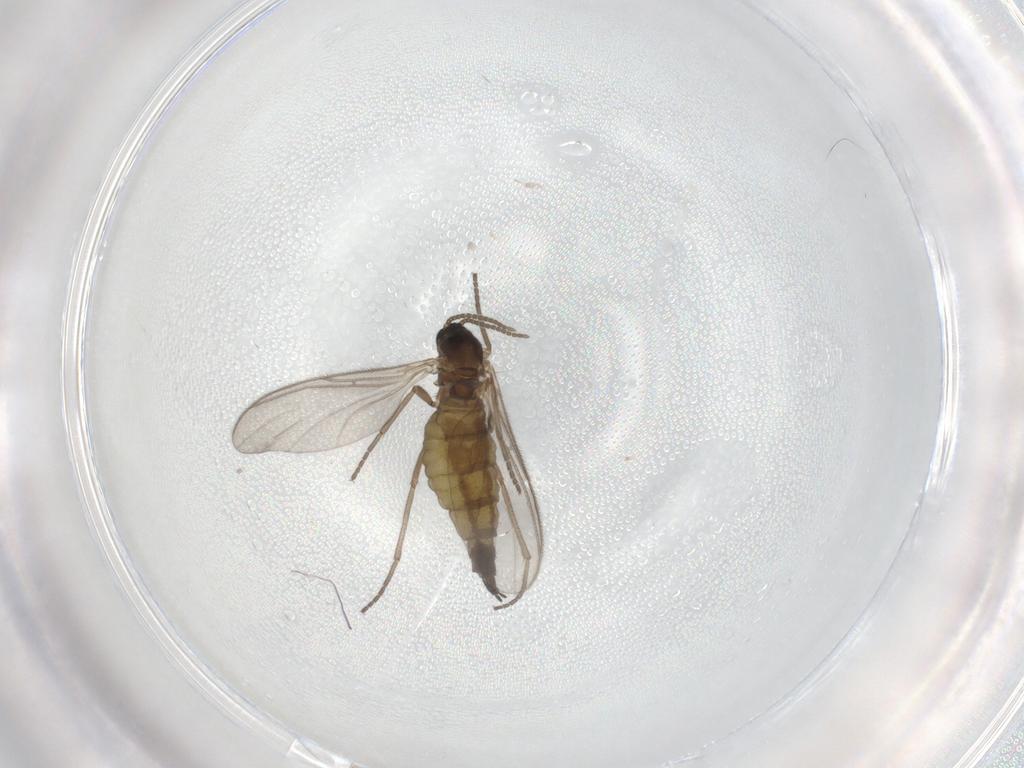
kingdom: Animalia
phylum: Arthropoda
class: Insecta
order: Diptera
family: Sciaridae
